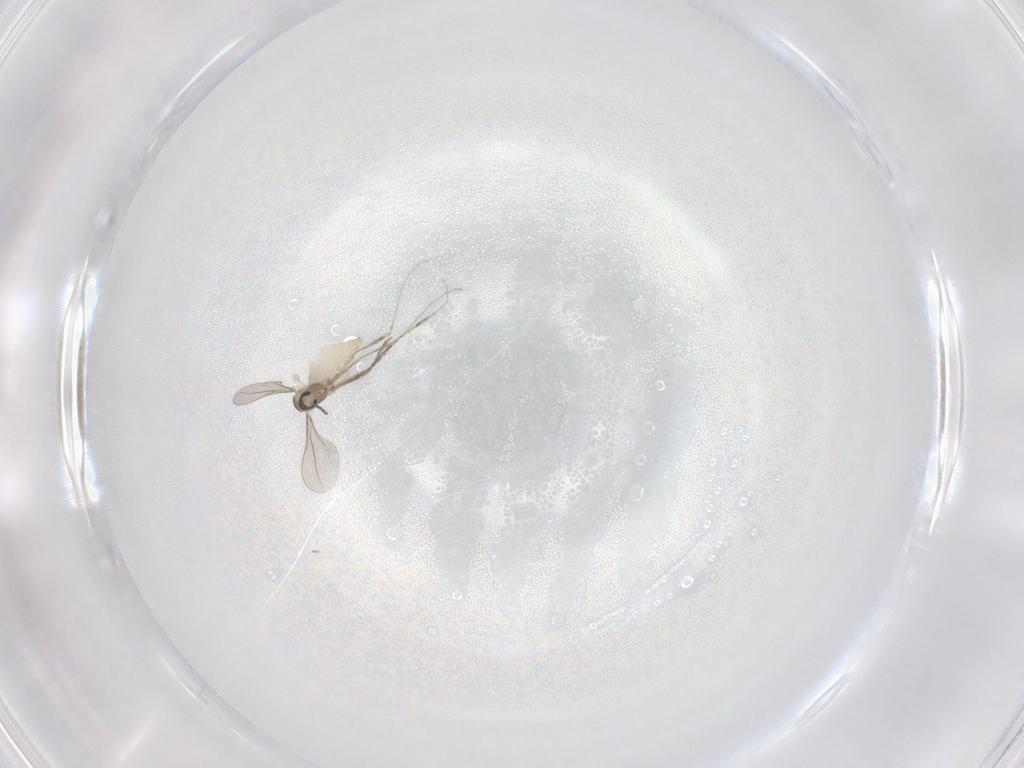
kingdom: Animalia
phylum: Arthropoda
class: Insecta
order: Diptera
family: Cecidomyiidae
